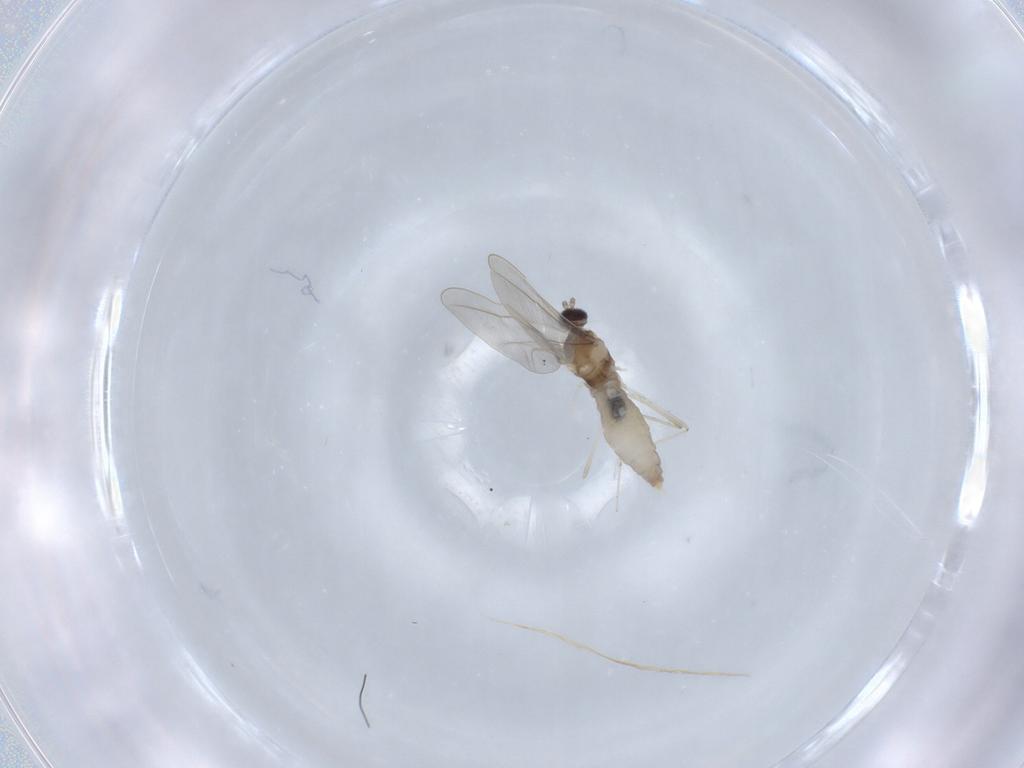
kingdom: Animalia
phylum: Arthropoda
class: Insecta
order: Diptera
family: Cecidomyiidae
